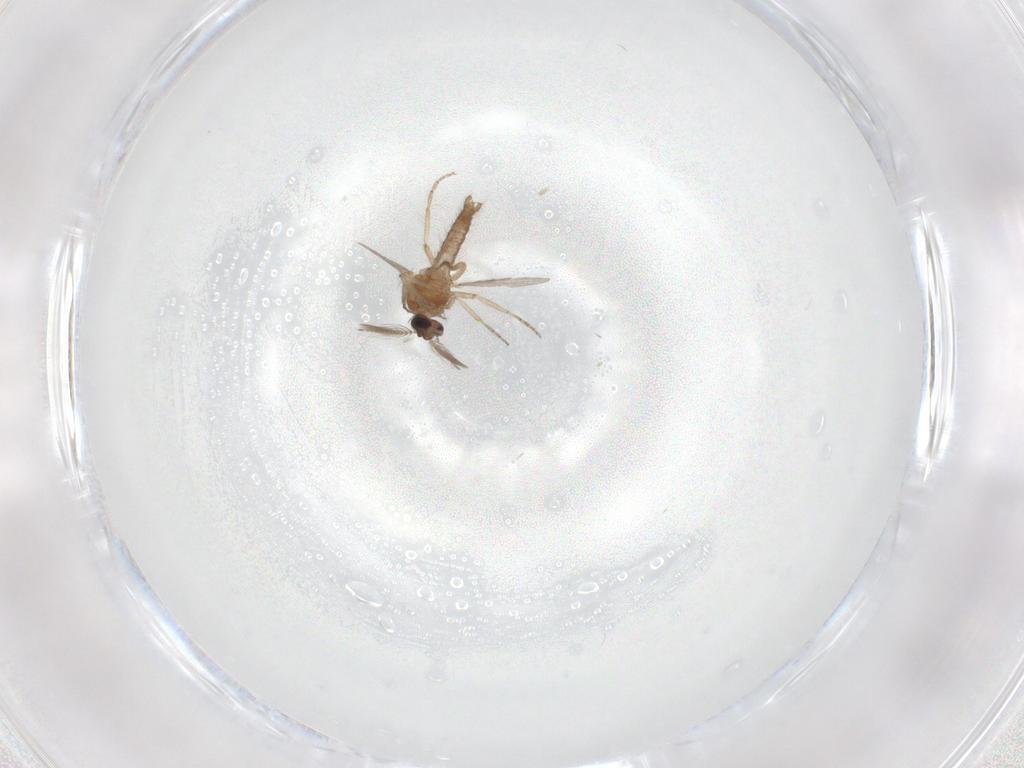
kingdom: Animalia
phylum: Arthropoda
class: Insecta
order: Diptera
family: Ceratopogonidae
